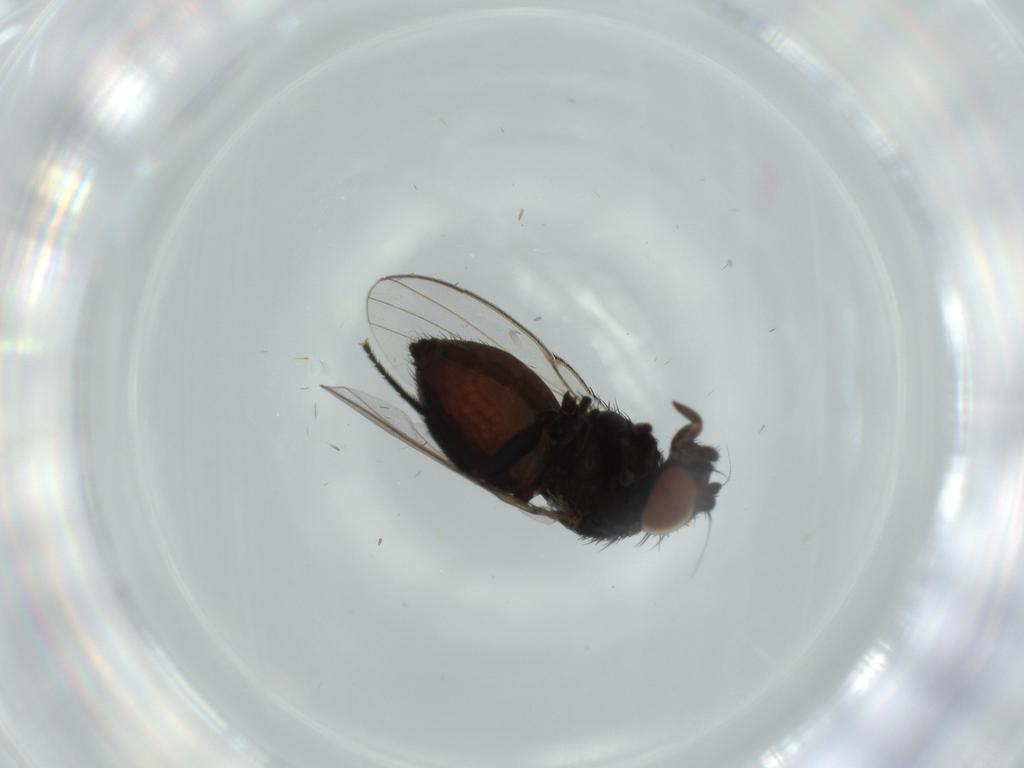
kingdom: Animalia
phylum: Arthropoda
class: Insecta
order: Diptera
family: Milichiidae
